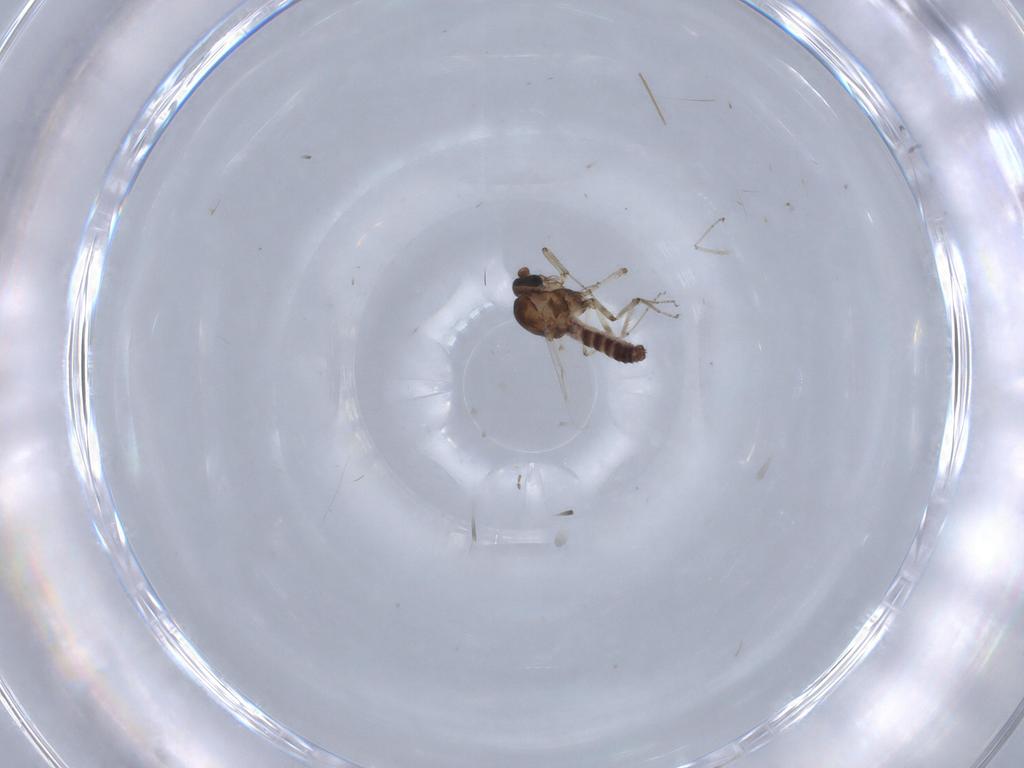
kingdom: Animalia
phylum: Arthropoda
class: Insecta
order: Diptera
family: Chironomidae
